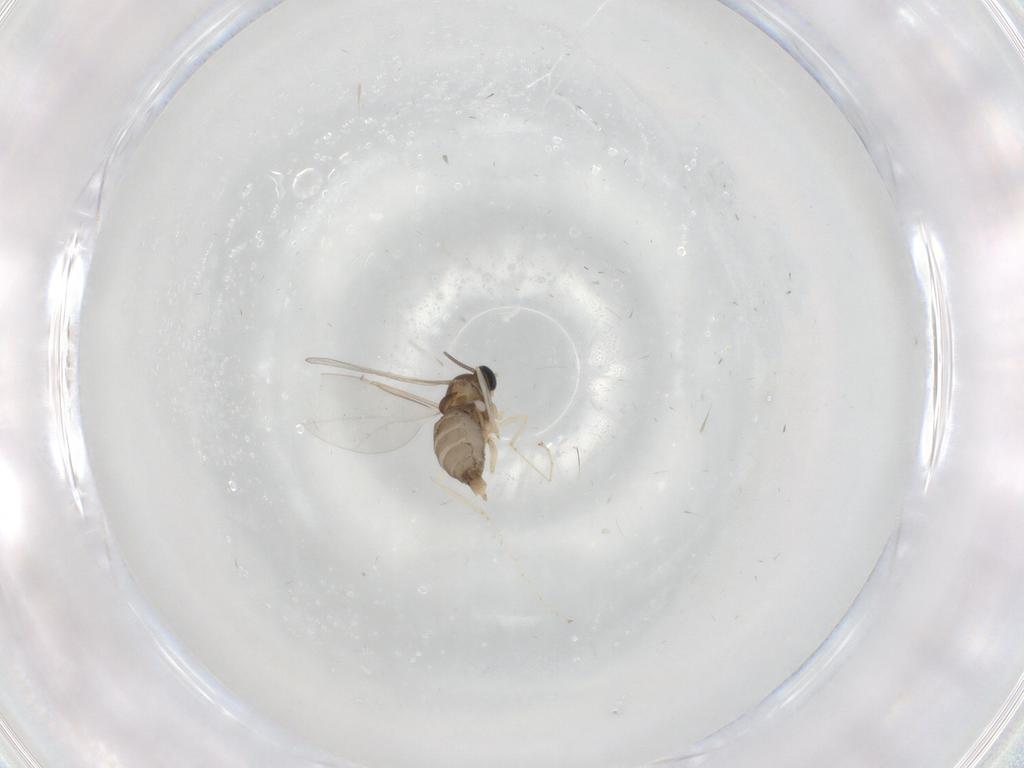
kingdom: Animalia
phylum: Arthropoda
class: Insecta
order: Diptera
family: Cecidomyiidae
